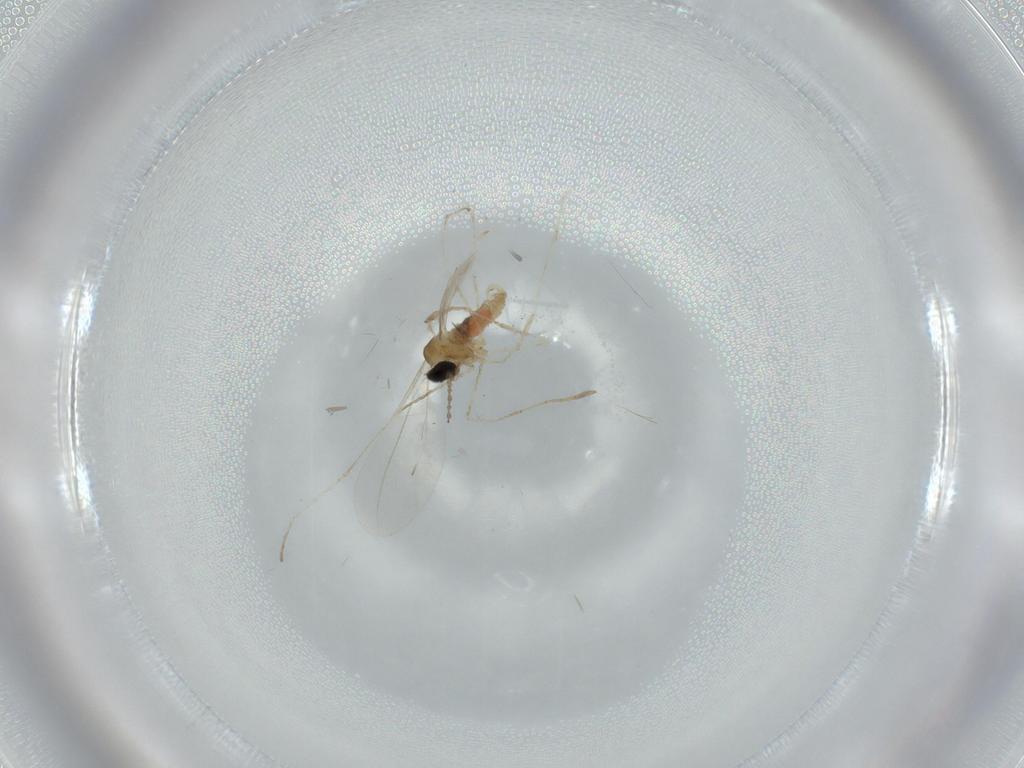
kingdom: Animalia
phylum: Arthropoda
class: Insecta
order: Diptera
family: Cecidomyiidae
